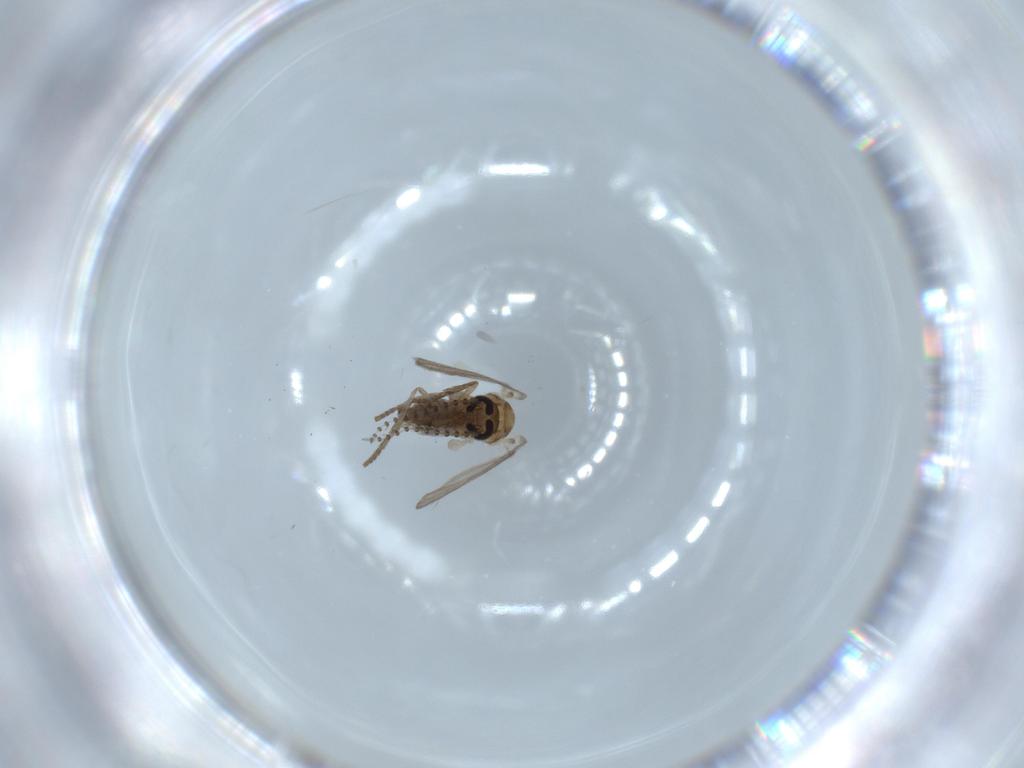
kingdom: Animalia
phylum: Arthropoda
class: Insecta
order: Diptera
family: Psychodidae
